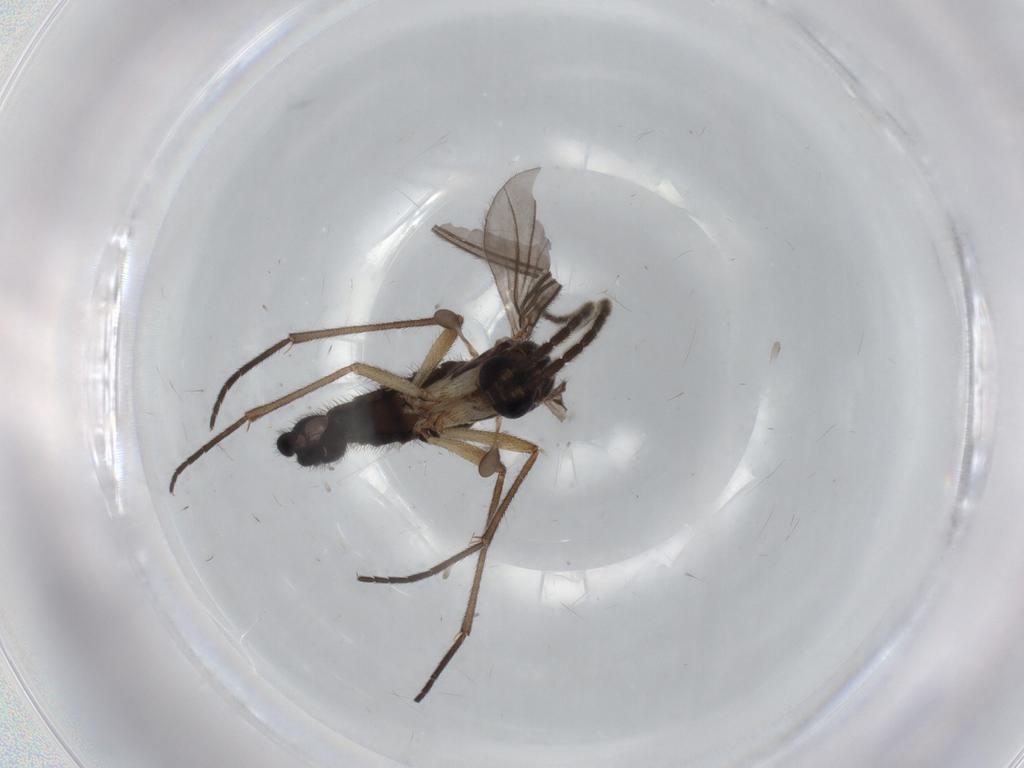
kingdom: Animalia
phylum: Arthropoda
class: Insecta
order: Diptera
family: Sciaridae
